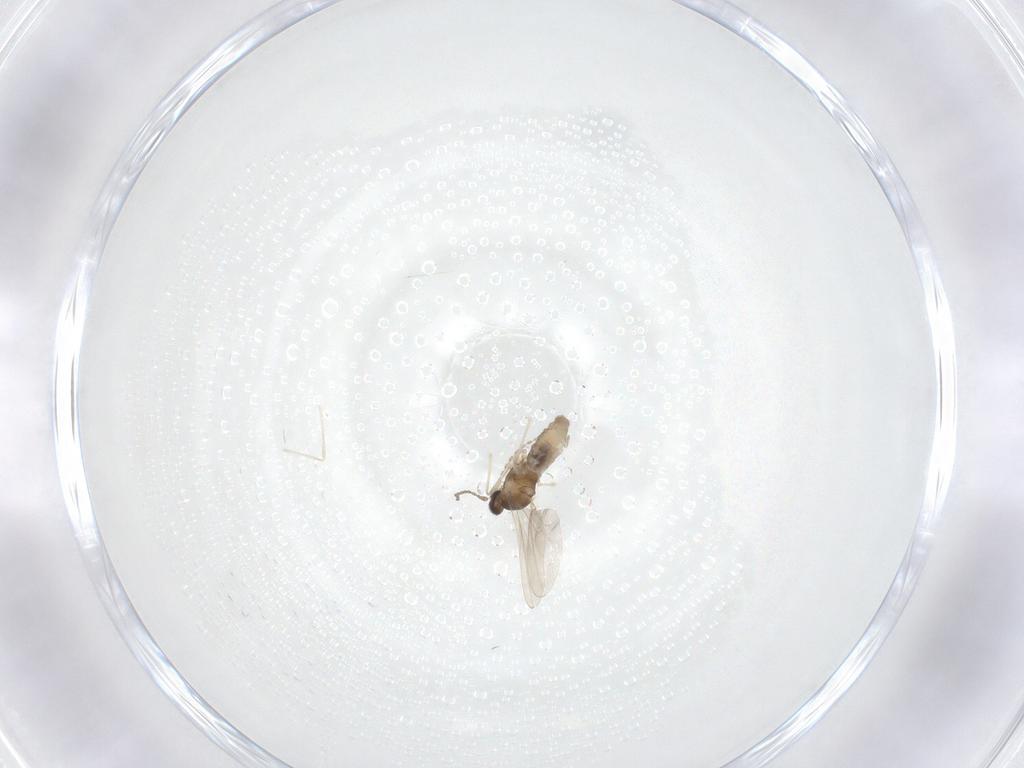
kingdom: Animalia
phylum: Arthropoda
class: Insecta
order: Diptera
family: Cecidomyiidae
